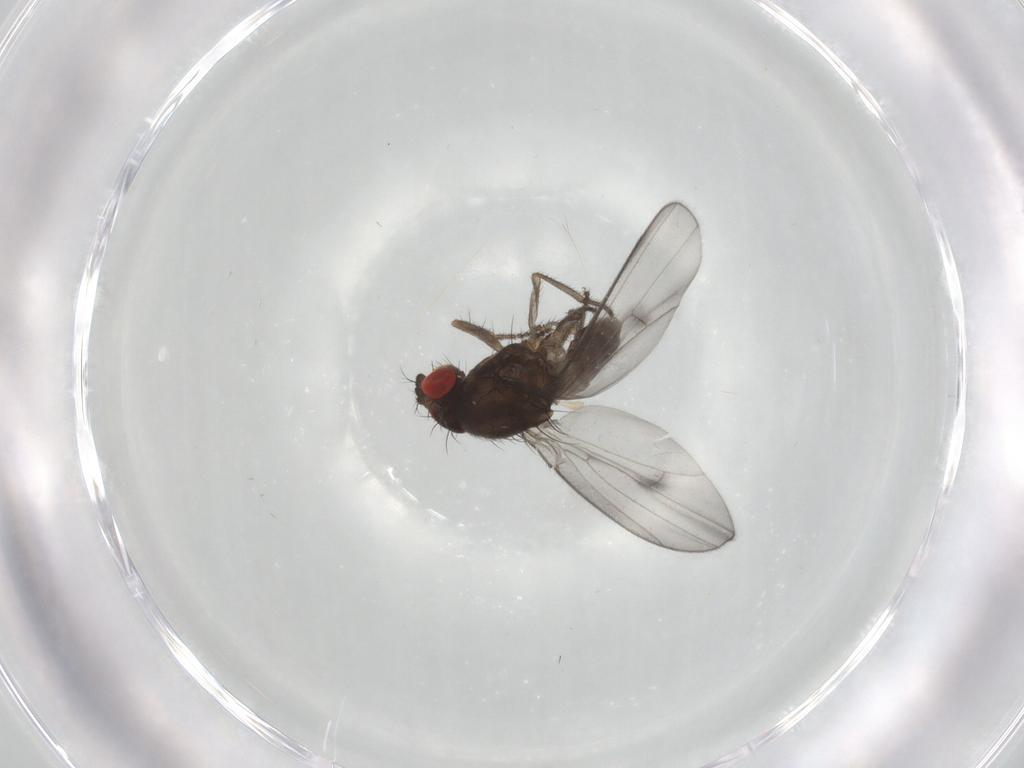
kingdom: Animalia
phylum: Arthropoda
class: Insecta
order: Diptera
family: Drosophilidae
